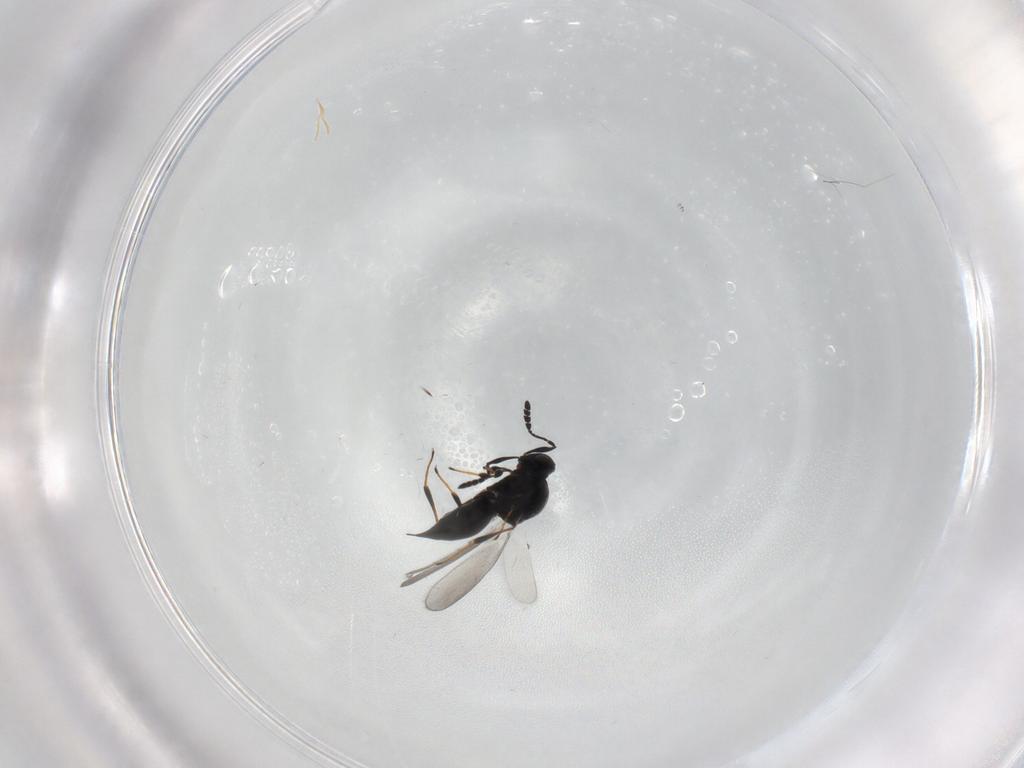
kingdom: Animalia
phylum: Arthropoda
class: Insecta
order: Hymenoptera
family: Platygastridae
